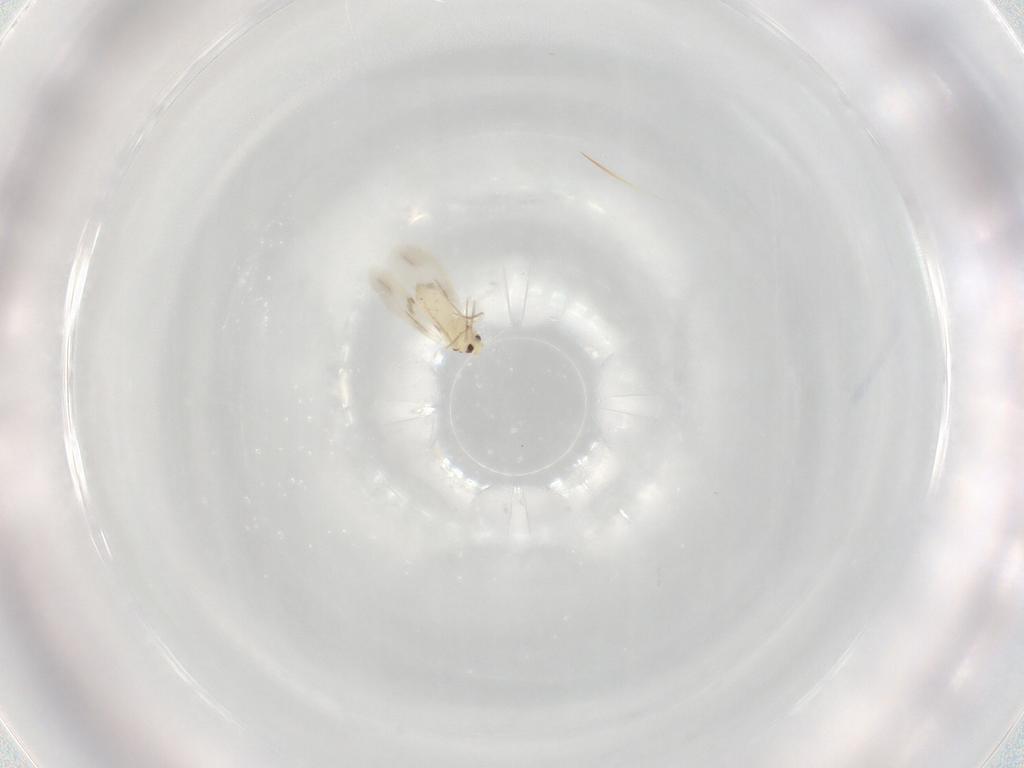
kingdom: Animalia
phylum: Arthropoda
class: Insecta
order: Hemiptera
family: Aleyrodidae
